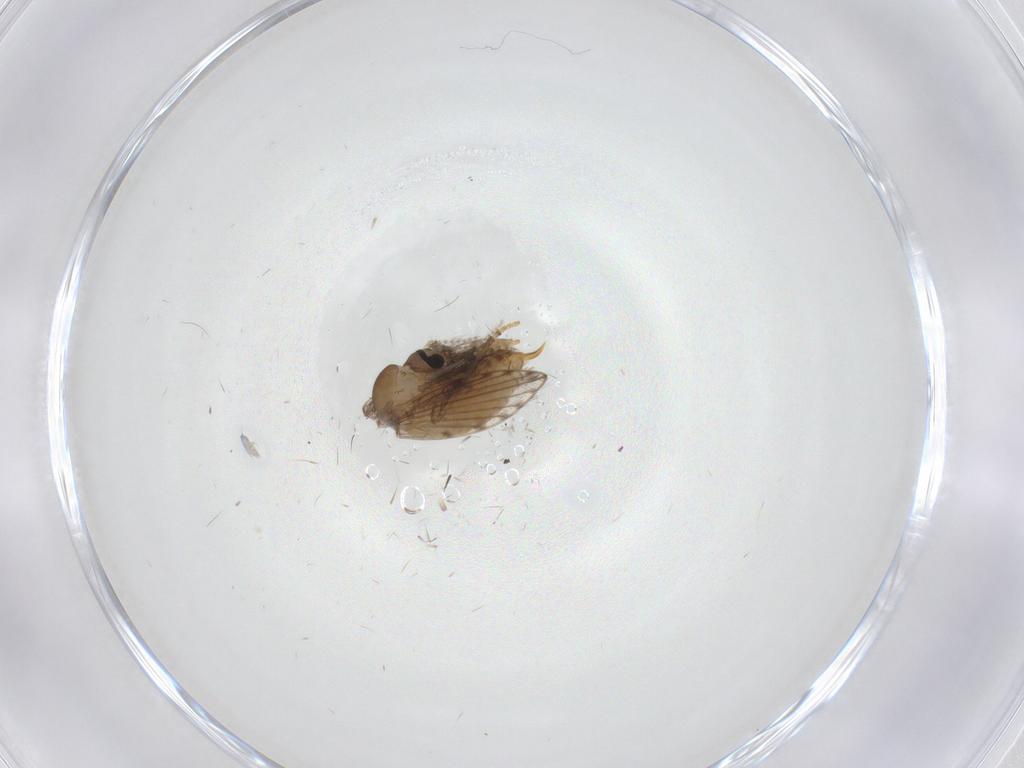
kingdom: Animalia
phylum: Arthropoda
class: Insecta
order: Diptera
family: Psychodidae
